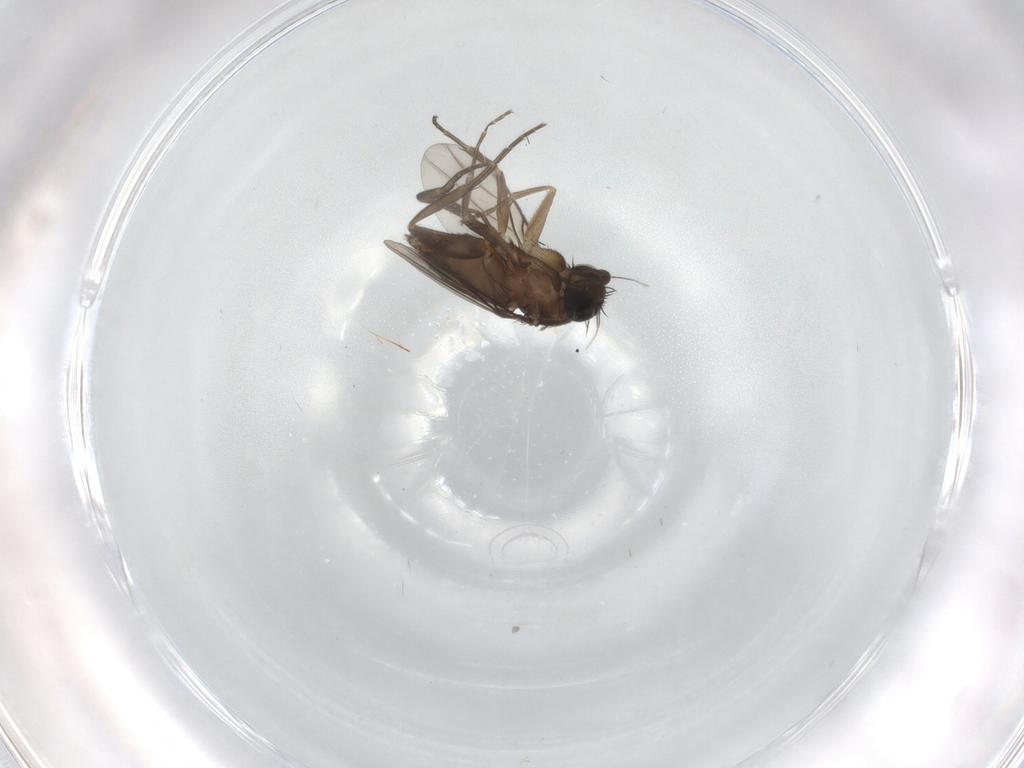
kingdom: Animalia
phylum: Arthropoda
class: Insecta
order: Diptera
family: Phoridae
